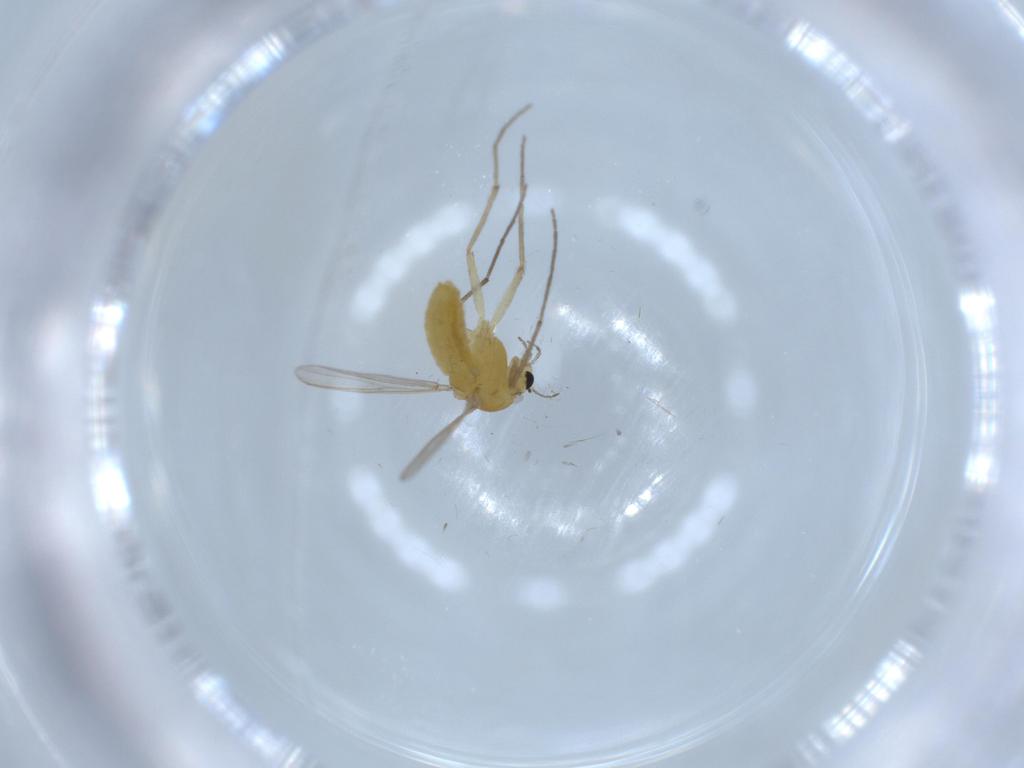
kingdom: Animalia
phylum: Arthropoda
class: Insecta
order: Diptera
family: Chironomidae
